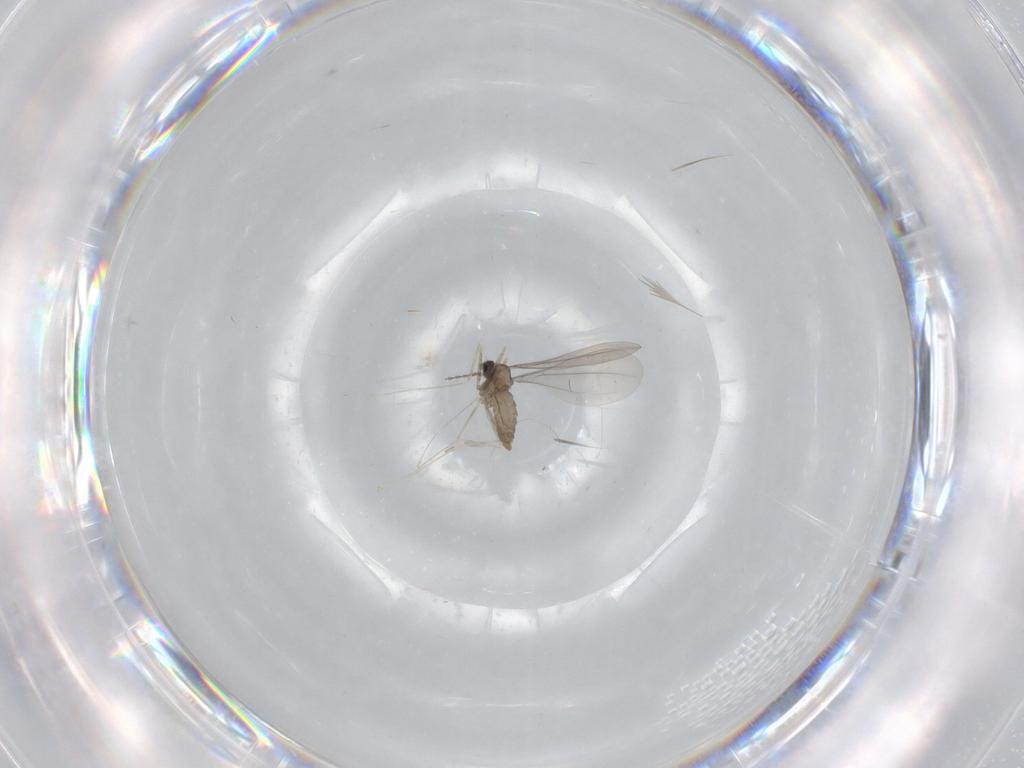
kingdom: Animalia
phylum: Arthropoda
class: Insecta
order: Diptera
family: Cecidomyiidae
